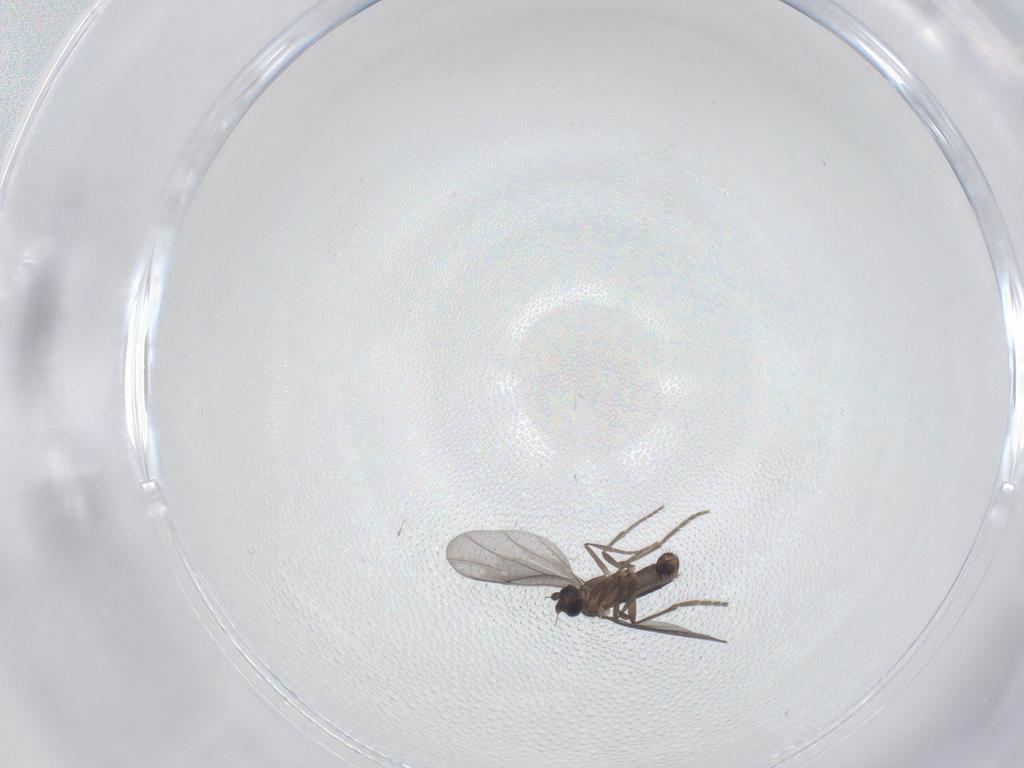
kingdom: Animalia
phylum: Arthropoda
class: Insecta
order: Diptera
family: Phoridae
